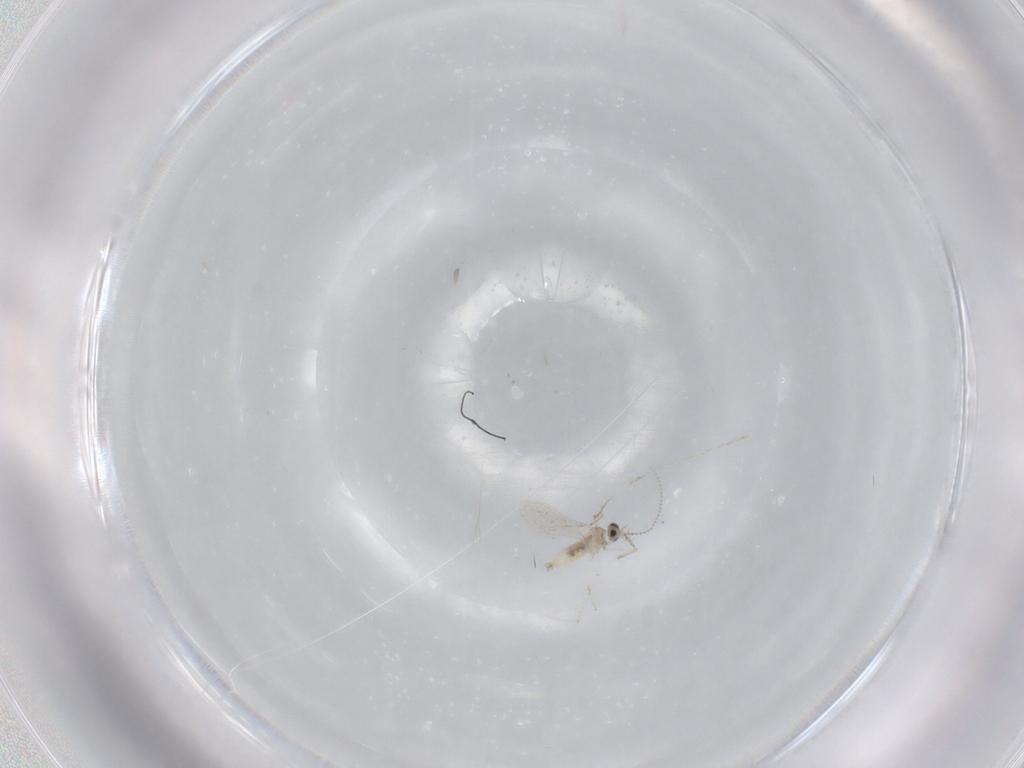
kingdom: Animalia
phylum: Arthropoda
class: Insecta
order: Diptera
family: Cecidomyiidae
